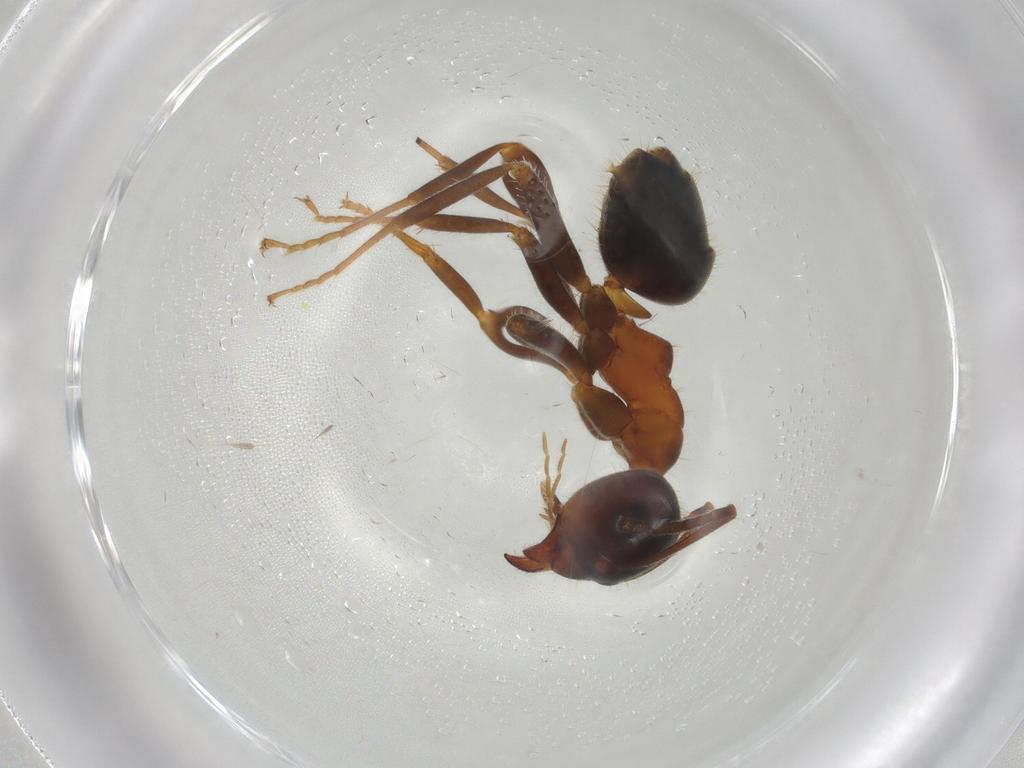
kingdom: Animalia
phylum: Arthropoda
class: Insecta
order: Hymenoptera
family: Formicidae
